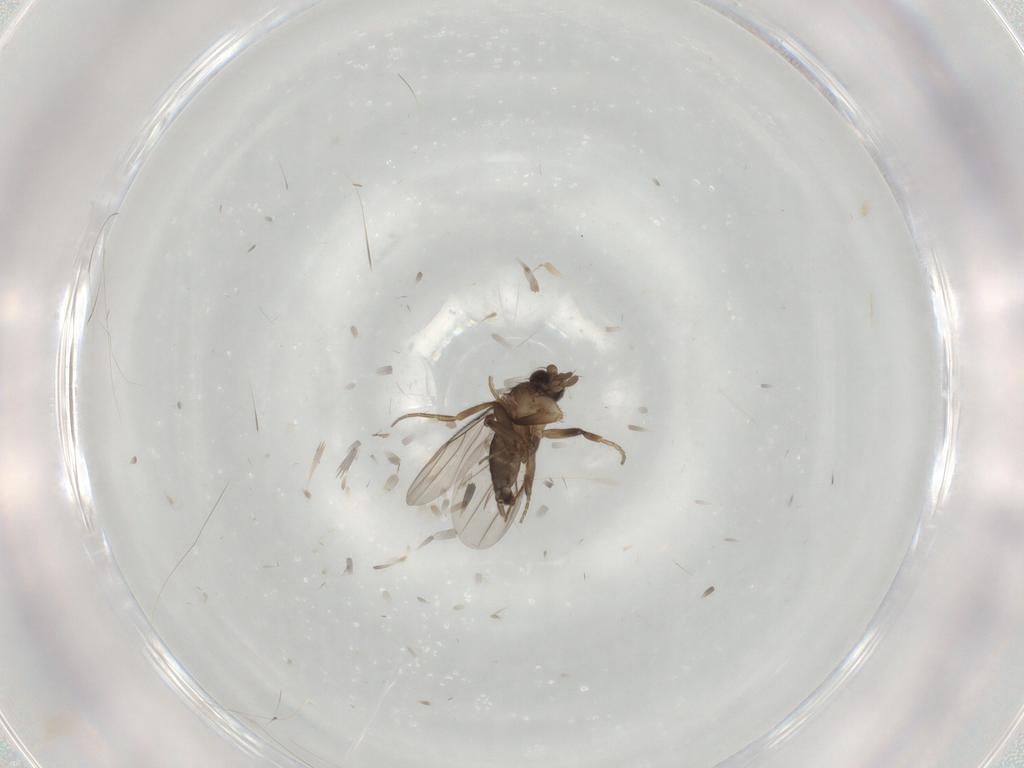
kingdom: Animalia
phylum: Arthropoda
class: Insecta
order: Diptera
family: Phoridae
